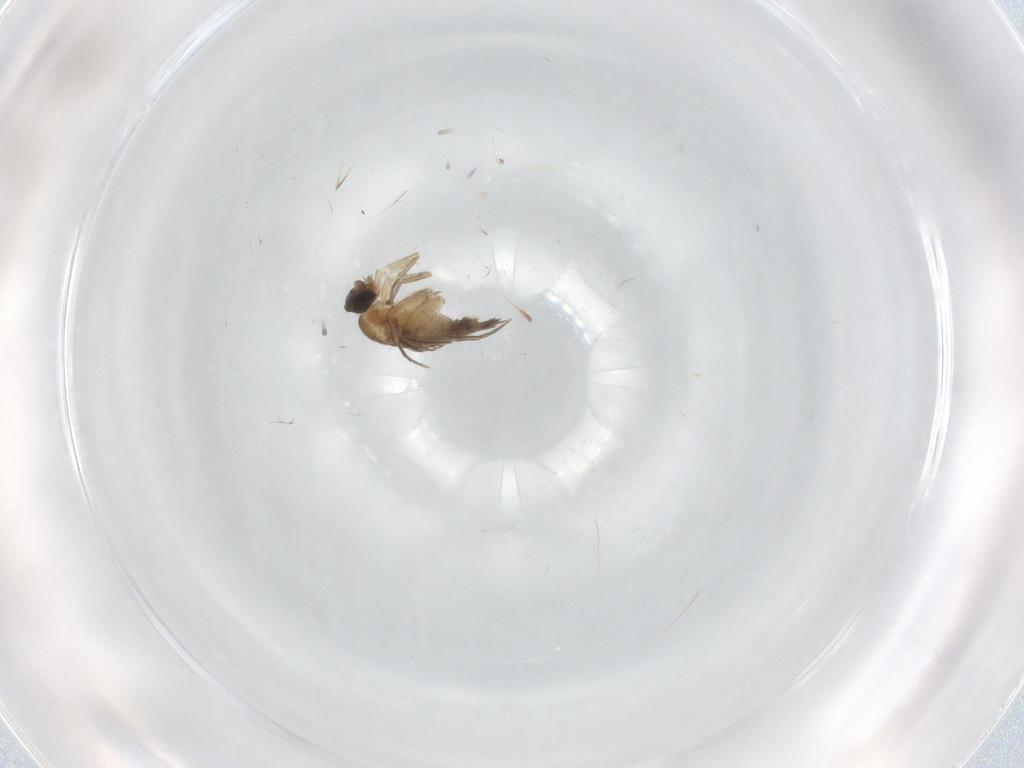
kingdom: Animalia
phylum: Arthropoda
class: Insecta
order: Diptera
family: Phoridae
